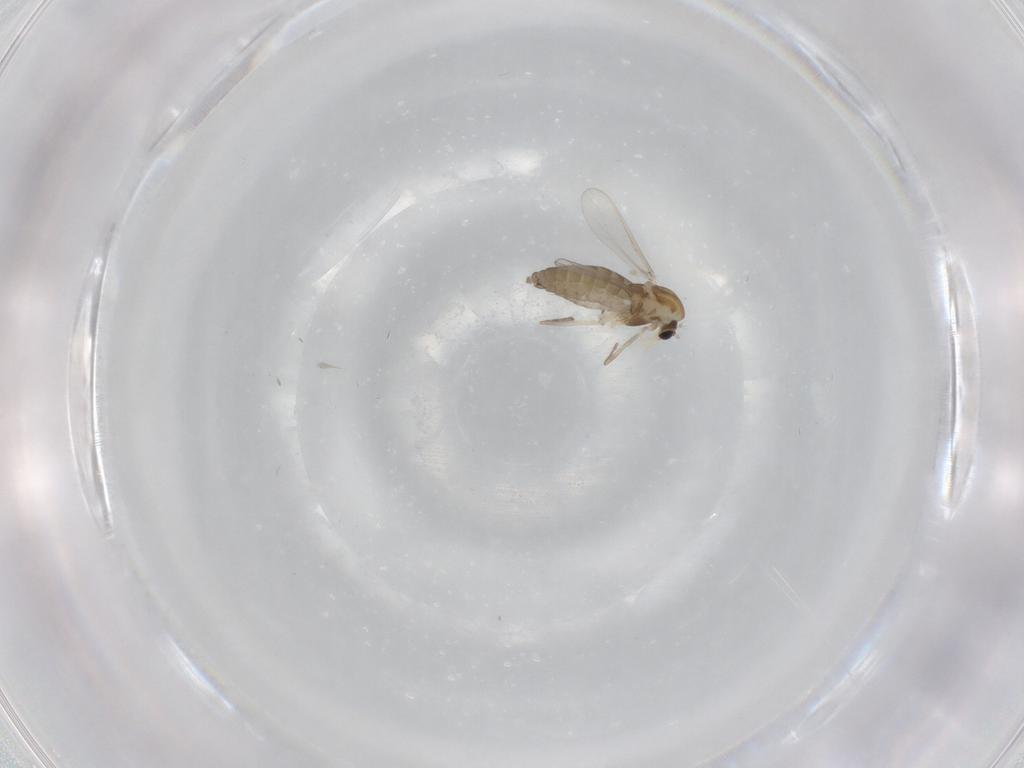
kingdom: Animalia
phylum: Arthropoda
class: Insecta
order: Diptera
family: Chironomidae
